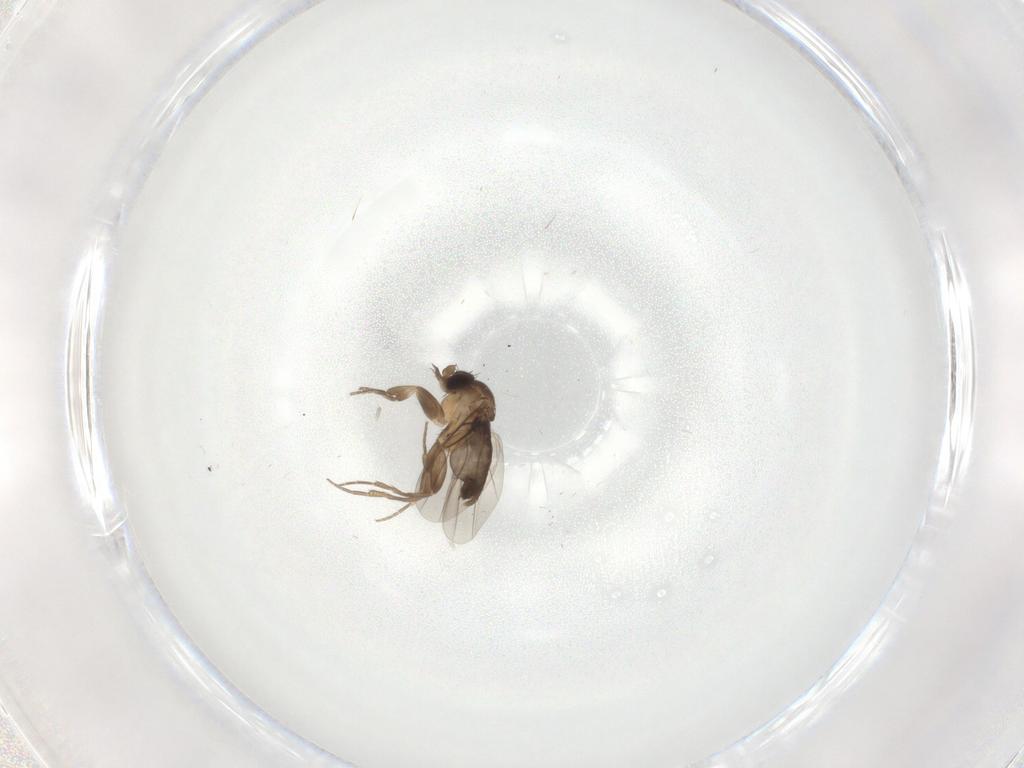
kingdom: Animalia
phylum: Arthropoda
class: Insecta
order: Diptera
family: Phoridae
